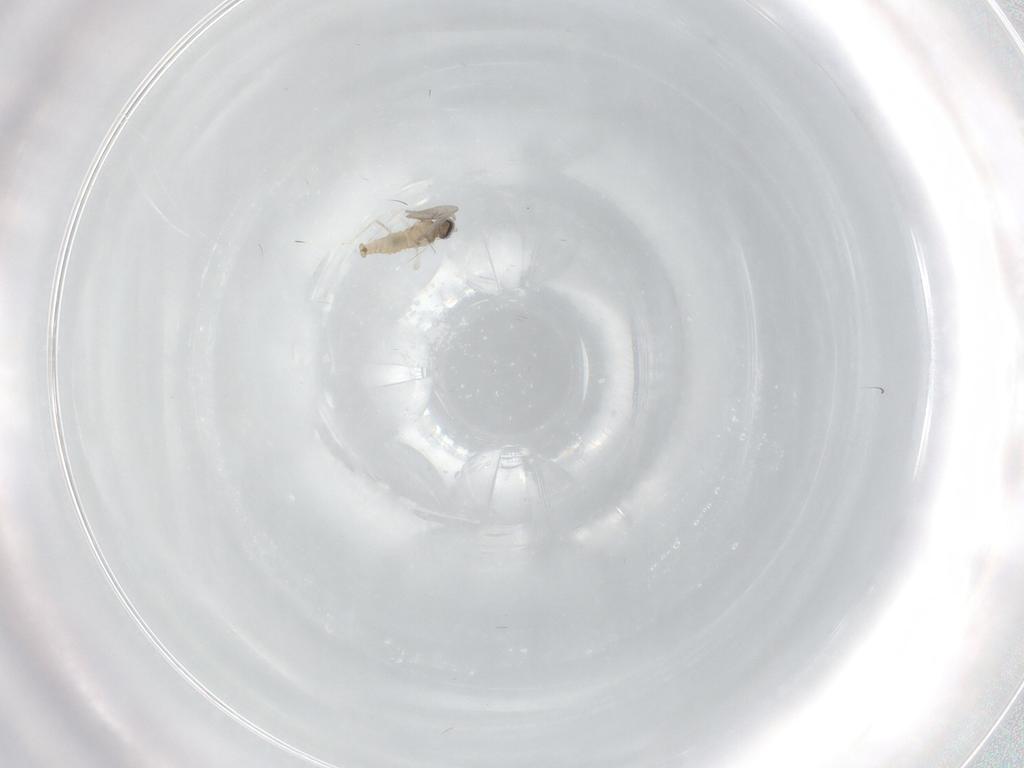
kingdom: Animalia
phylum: Arthropoda
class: Insecta
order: Diptera
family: Cecidomyiidae
